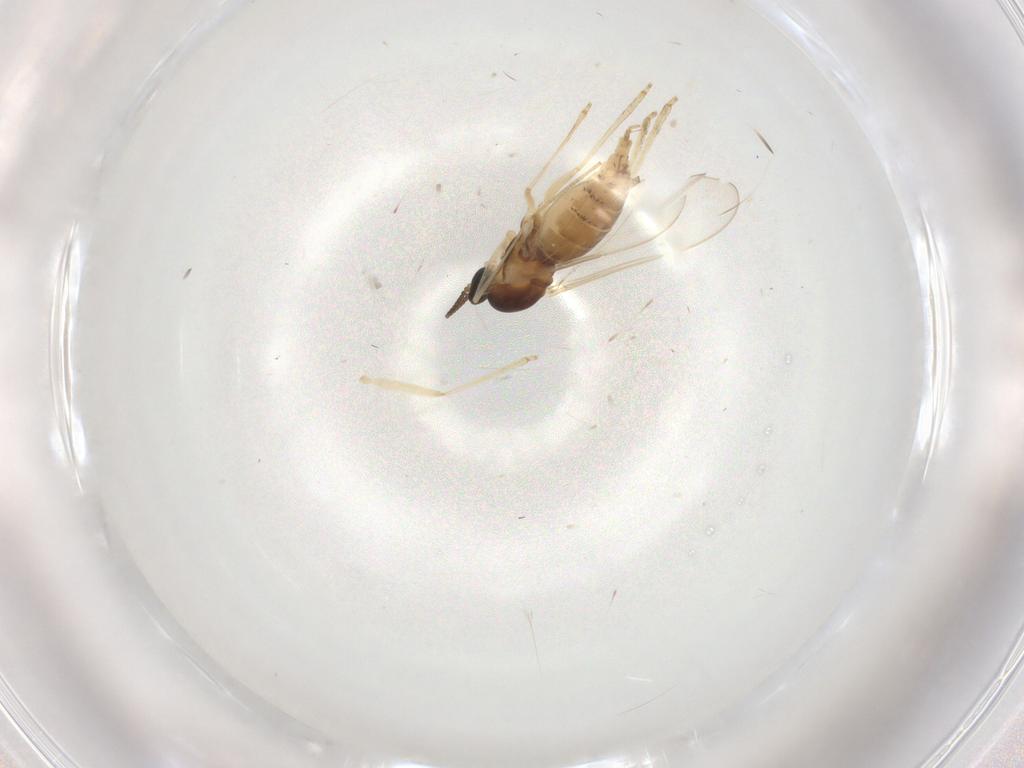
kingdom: Animalia
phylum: Arthropoda
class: Insecta
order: Diptera
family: Cecidomyiidae
